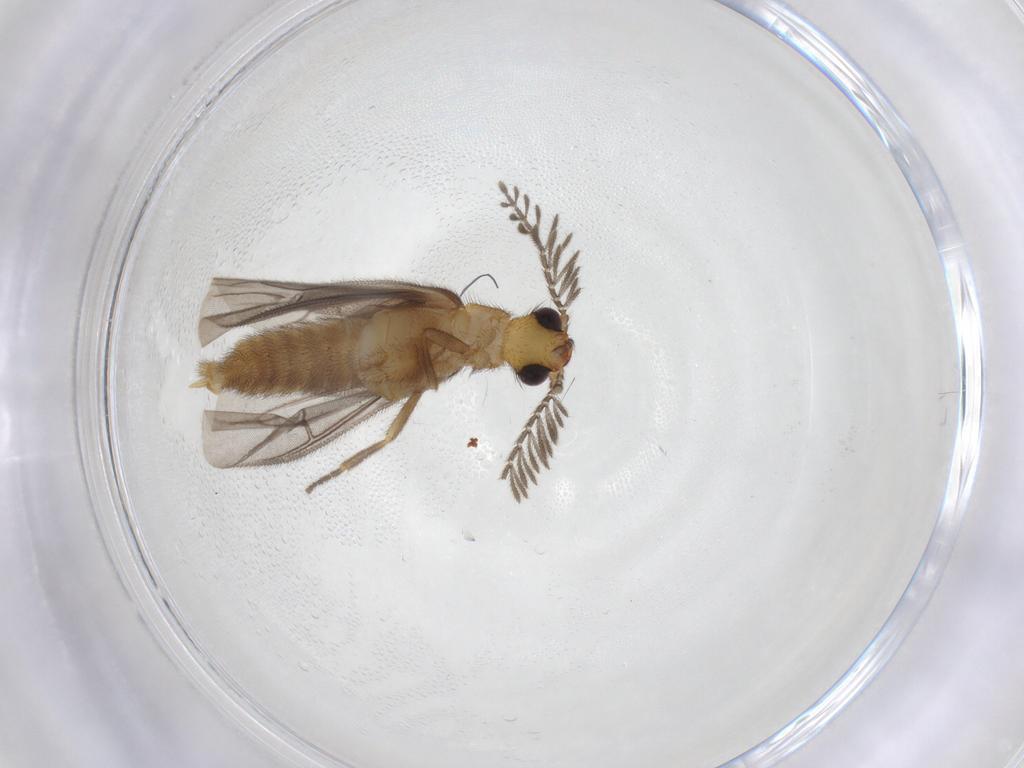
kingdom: Animalia
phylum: Arthropoda
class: Insecta
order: Coleoptera
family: Phengodidae
